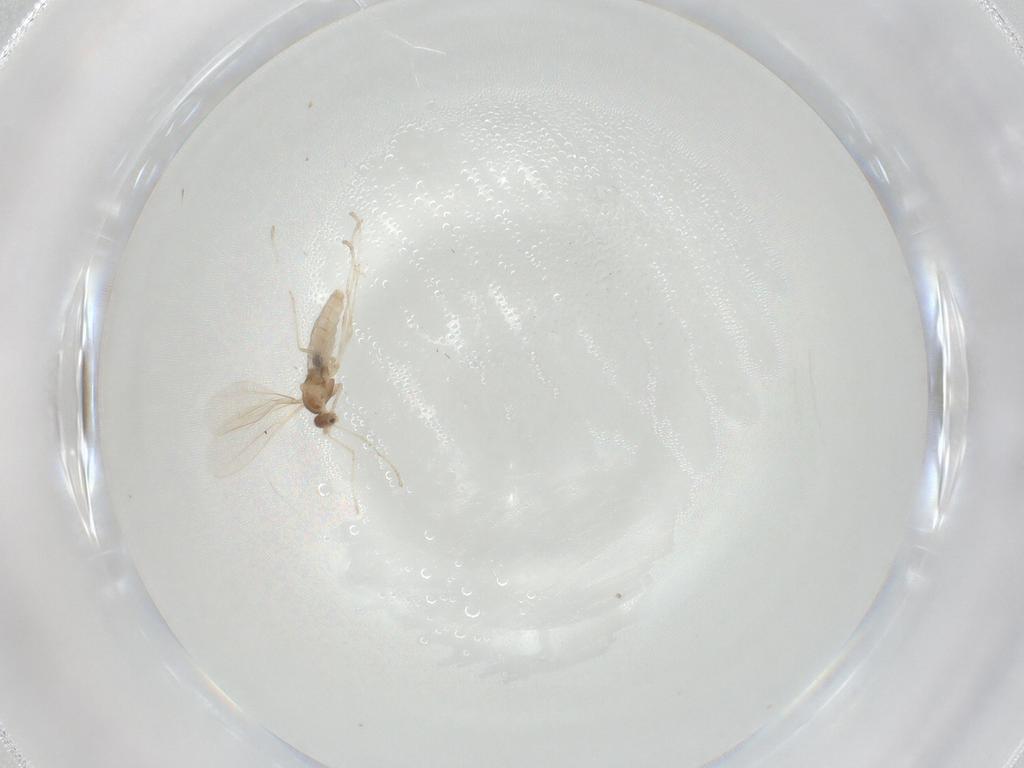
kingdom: Animalia
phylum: Arthropoda
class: Insecta
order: Diptera
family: Cecidomyiidae
